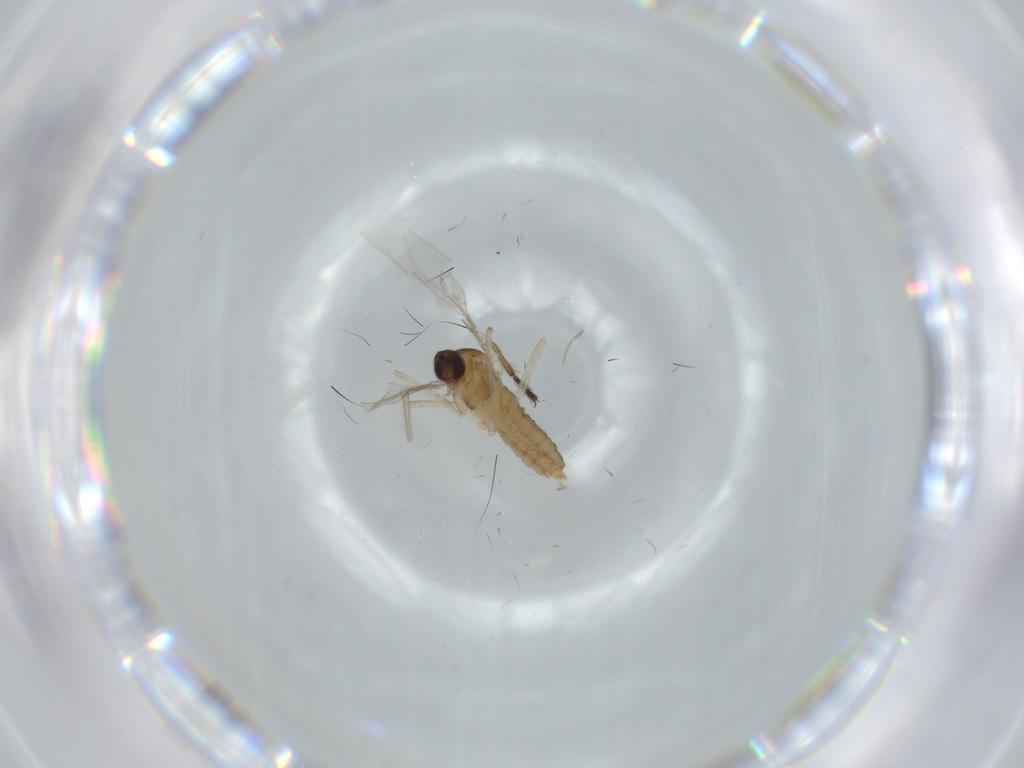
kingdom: Animalia
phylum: Arthropoda
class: Insecta
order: Diptera
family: Cecidomyiidae
